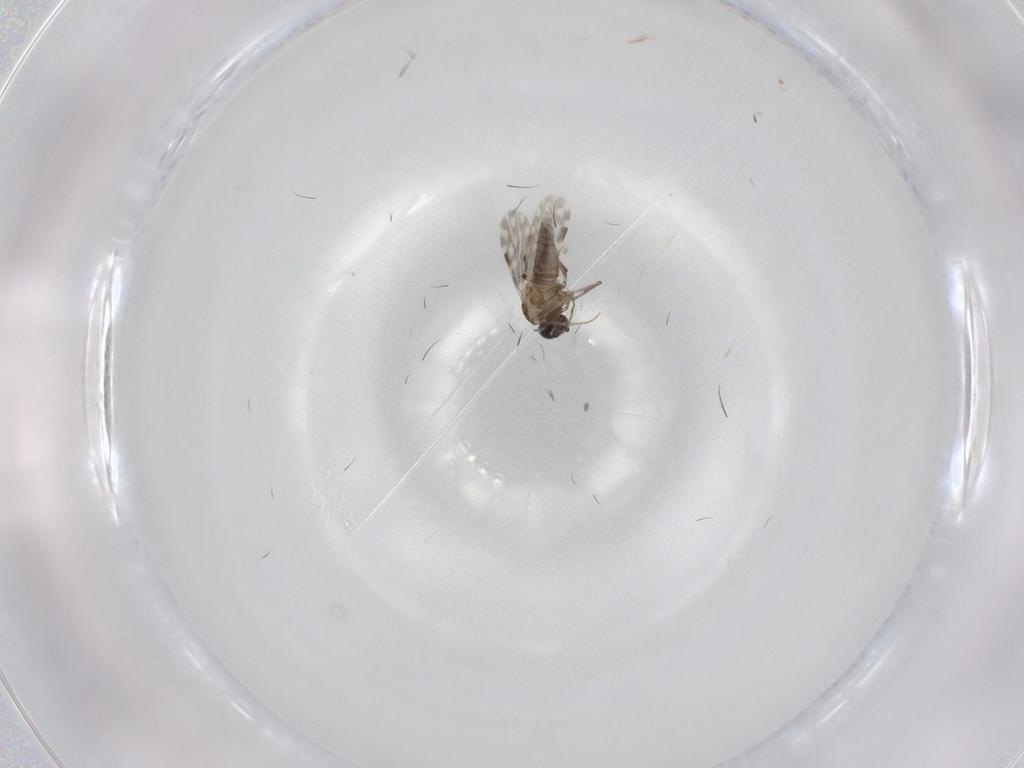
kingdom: Animalia
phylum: Arthropoda
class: Insecta
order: Diptera
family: Ceratopogonidae
